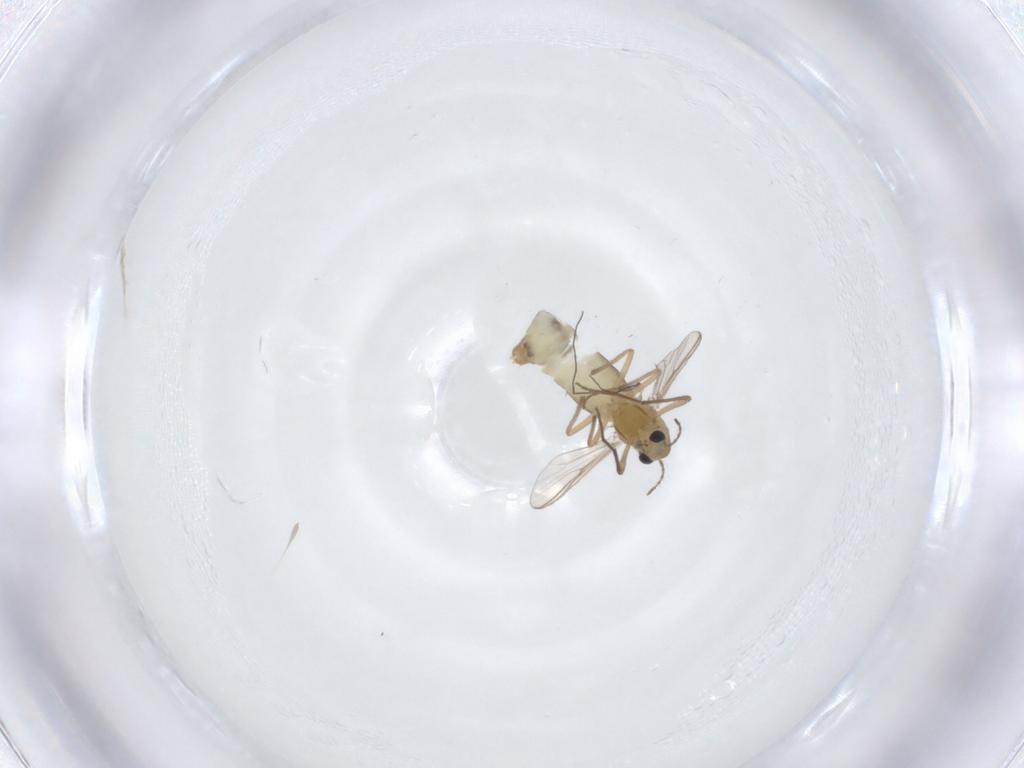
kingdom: Animalia
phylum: Arthropoda
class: Insecta
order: Diptera
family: Chironomidae
